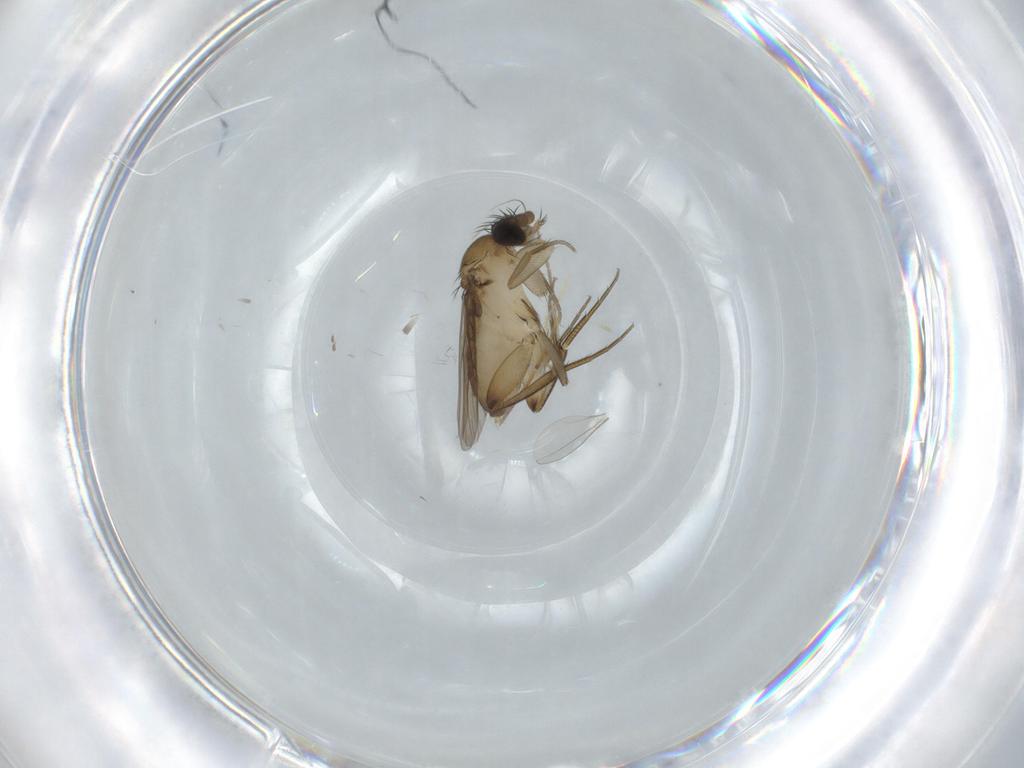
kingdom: Animalia
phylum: Arthropoda
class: Insecta
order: Diptera
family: Phoridae
